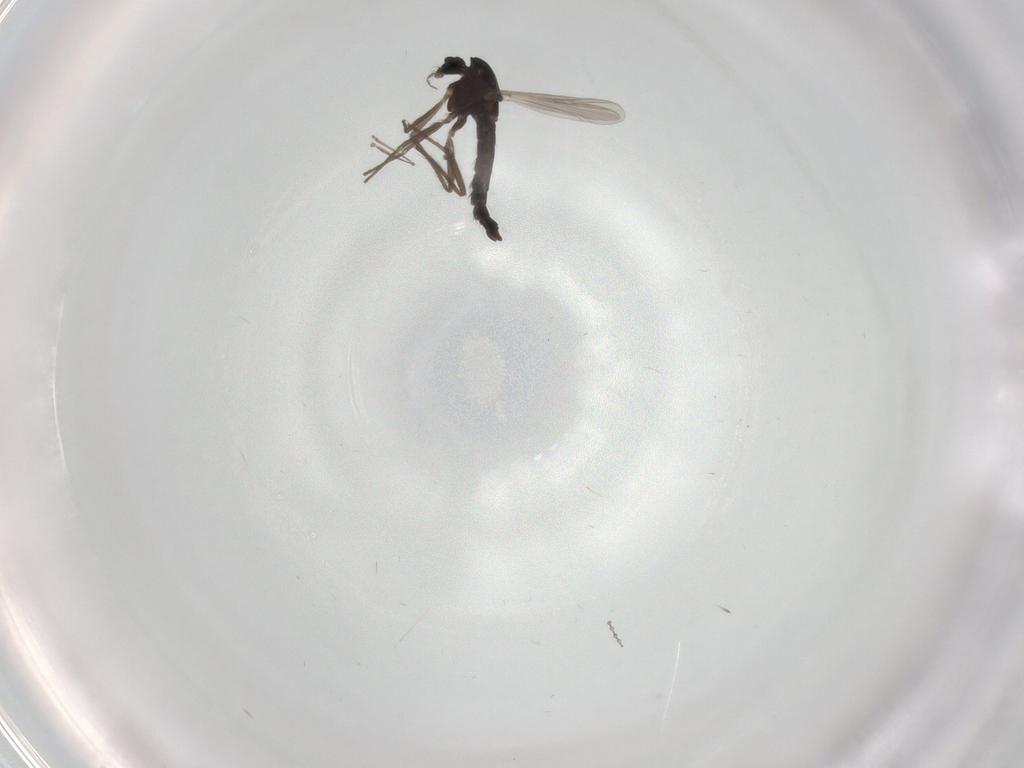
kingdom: Animalia
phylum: Arthropoda
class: Insecta
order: Diptera
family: Chironomidae
